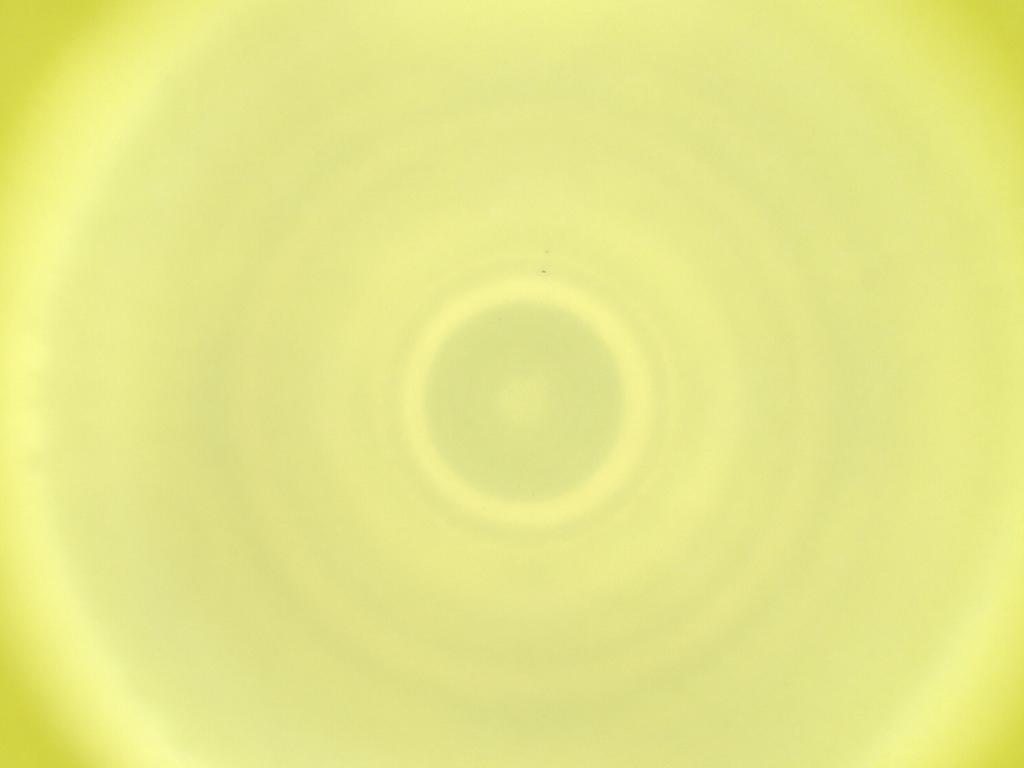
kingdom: Animalia
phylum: Arthropoda
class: Insecta
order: Diptera
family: Cecidomyiidae
